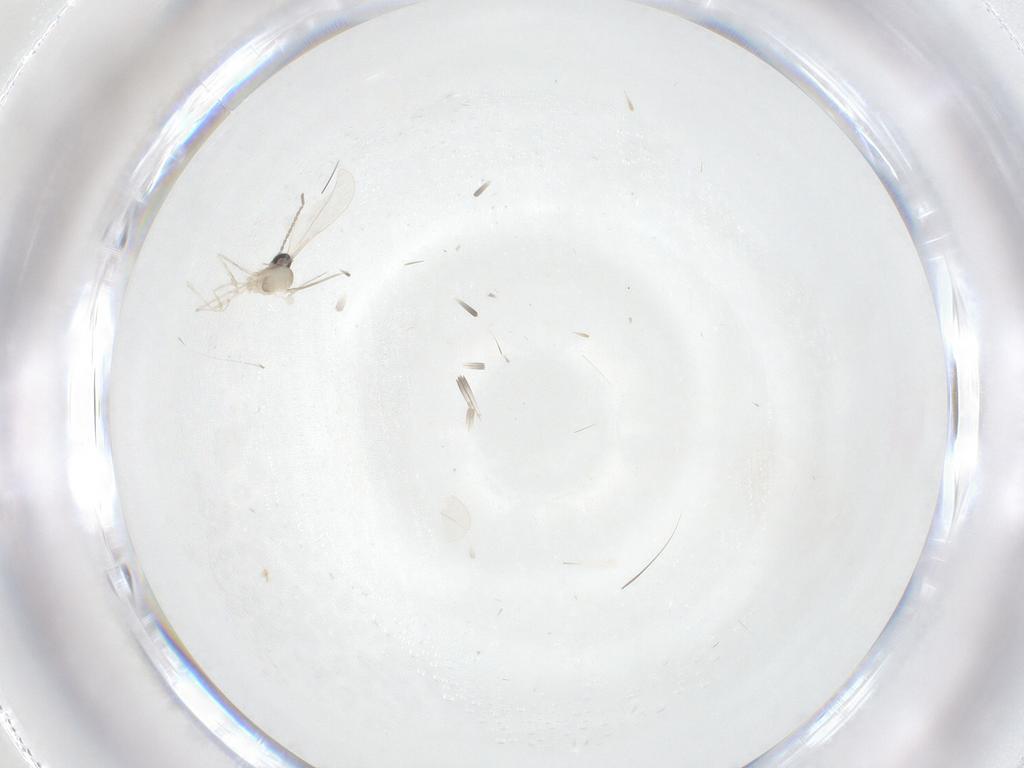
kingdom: Animalia
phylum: Arthropoda
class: Insecta
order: Diptera
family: Cecidomyiidae
